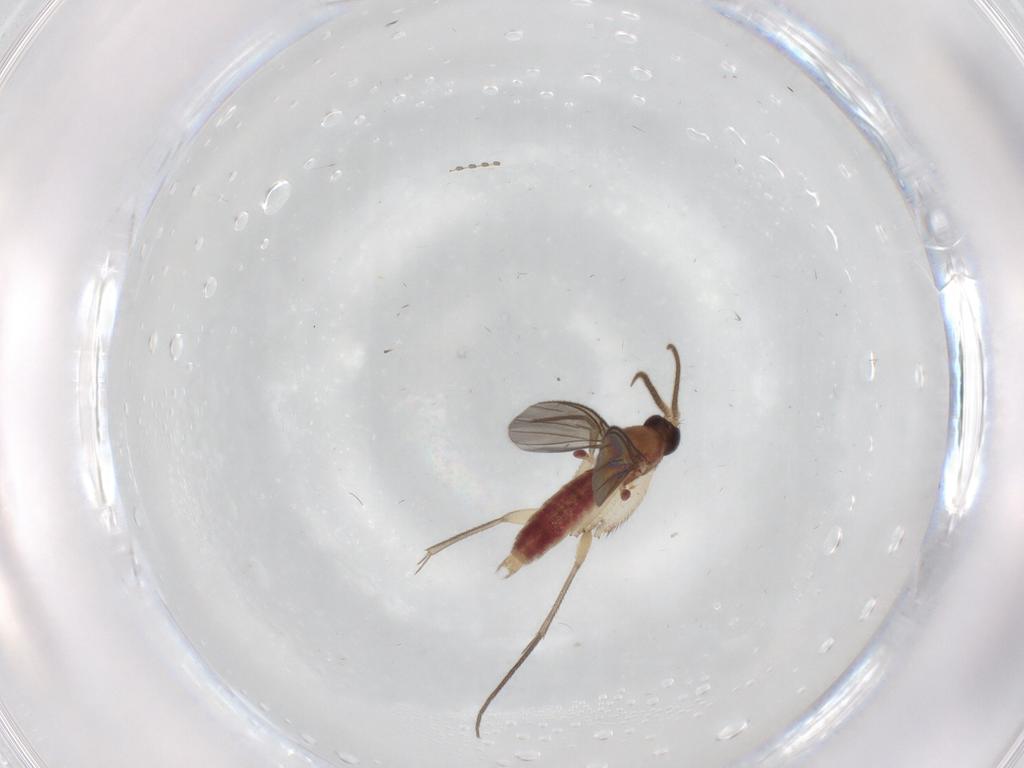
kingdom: Animalia
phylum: Arthropoda
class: Insecta
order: Diptera
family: Mycetophilidae
